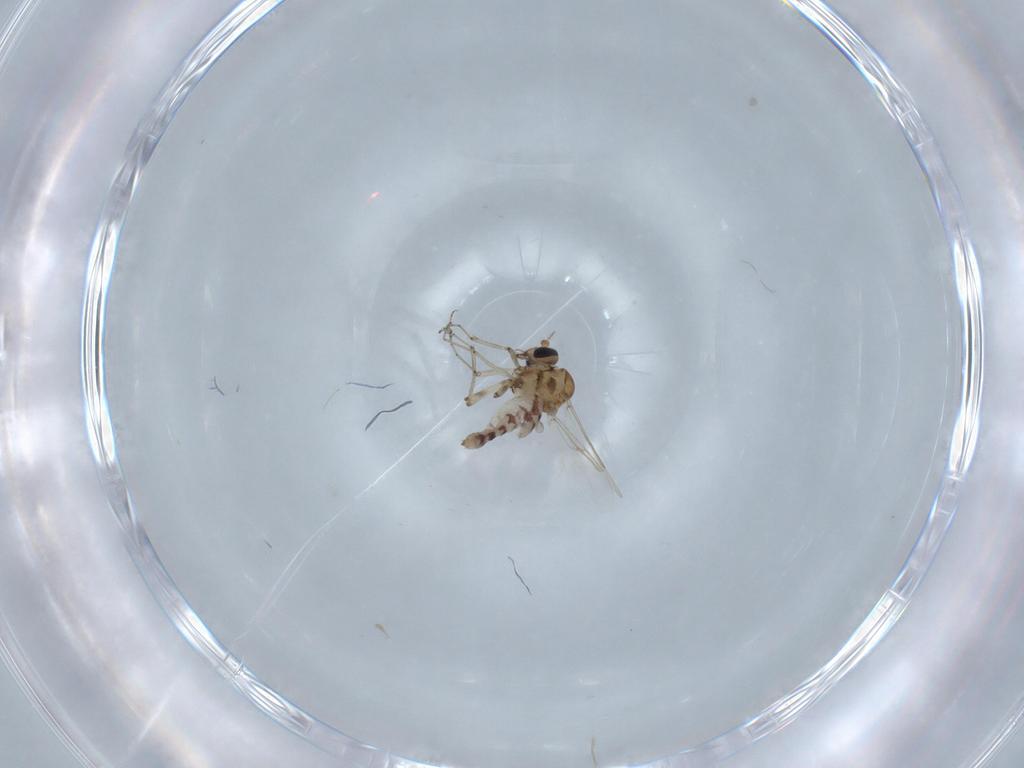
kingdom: Animalia
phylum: Arthropoda
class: Insecta
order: Diptera
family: Ceratopogonidae
